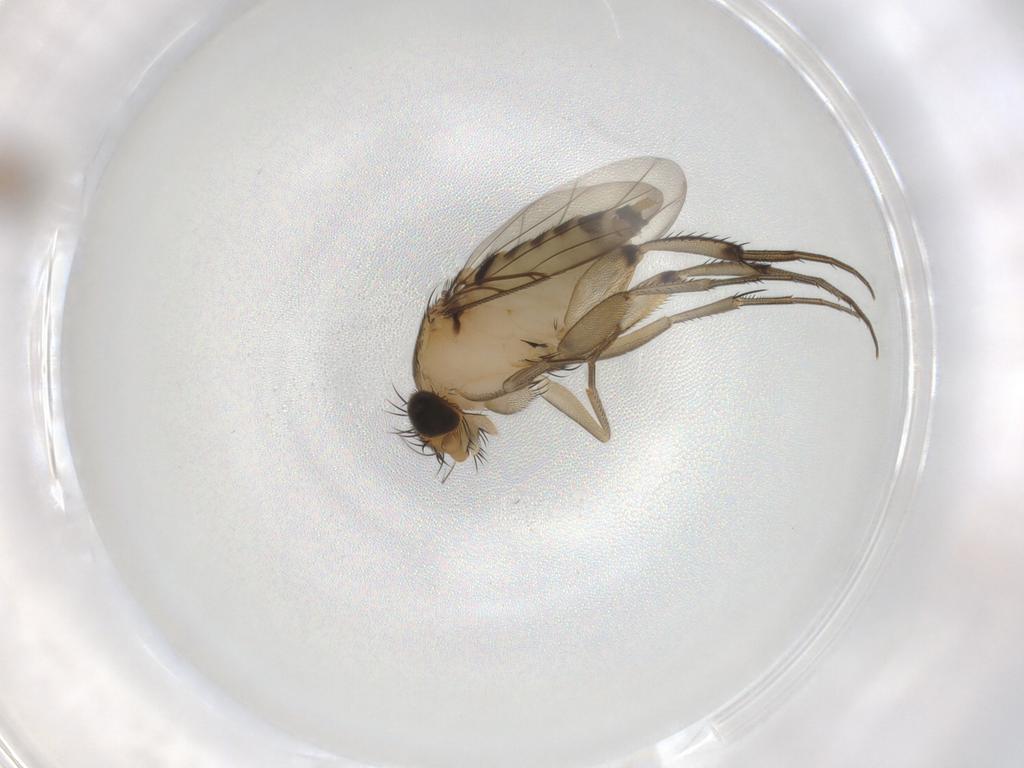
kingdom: Animalia
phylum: Arthropoda
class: Insecta
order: Diptera
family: Phoridae
